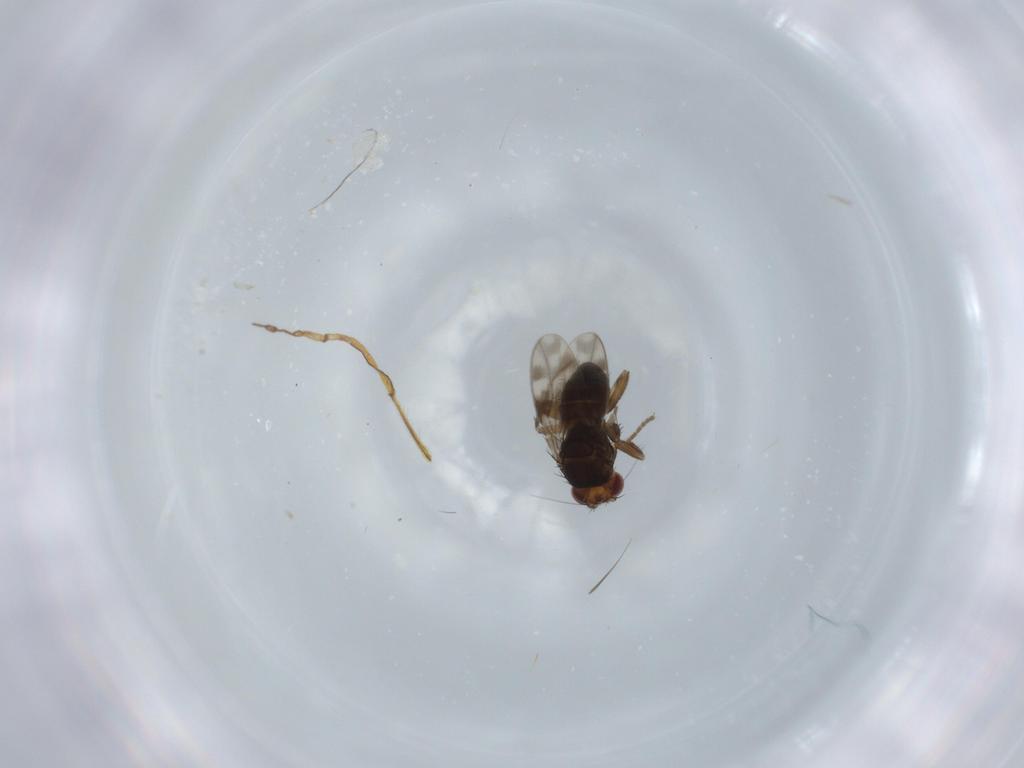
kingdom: Animalia
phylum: Arthropoda
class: Insecta
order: Diptera
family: Sphaeroceridae
